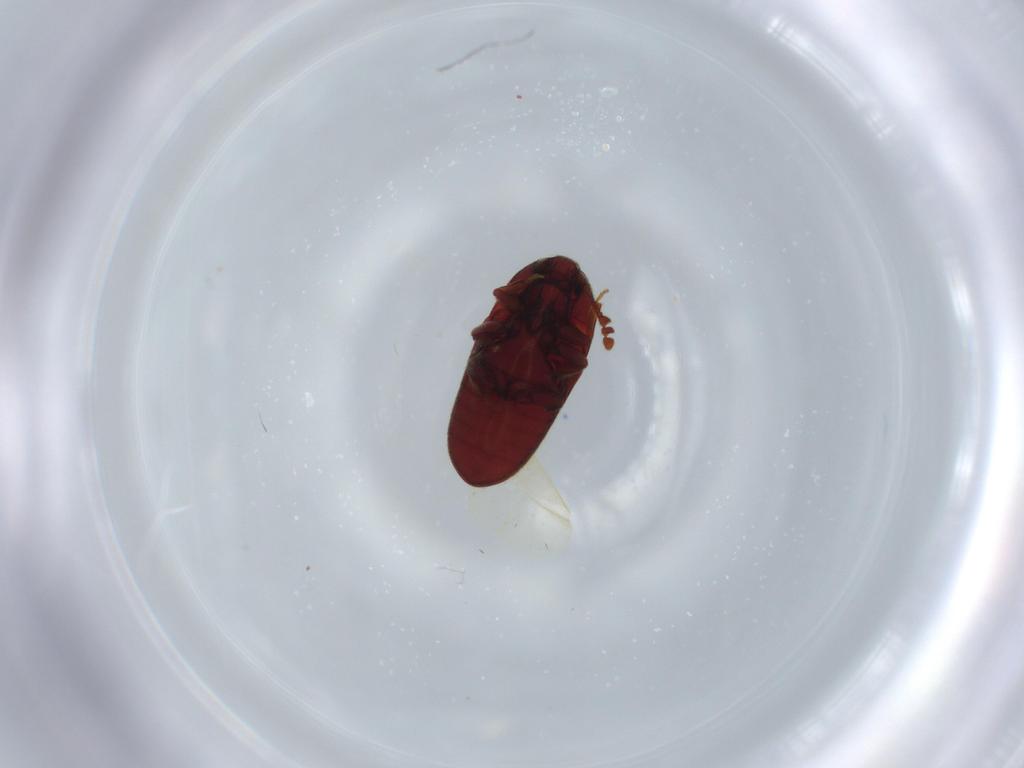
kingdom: Animalia
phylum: Arthropoda
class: Insecta
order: Coleoptera
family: Throscidae
